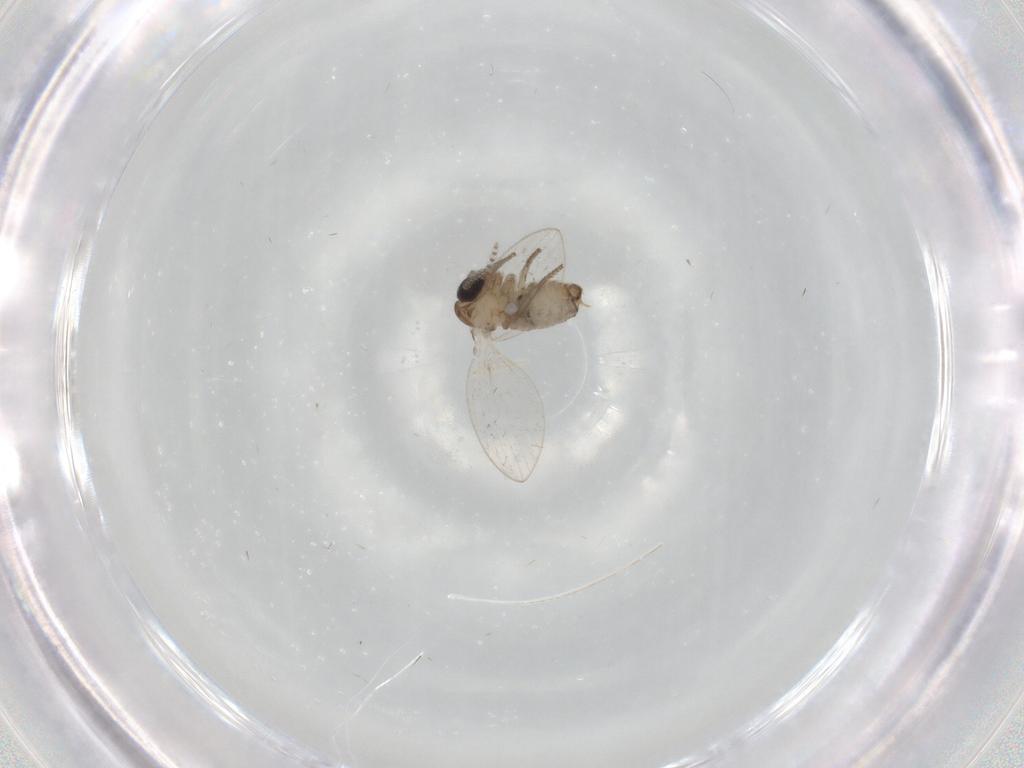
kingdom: Animalia
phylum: Arthropoda
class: Insecta
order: Diptera
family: Psychodidae
